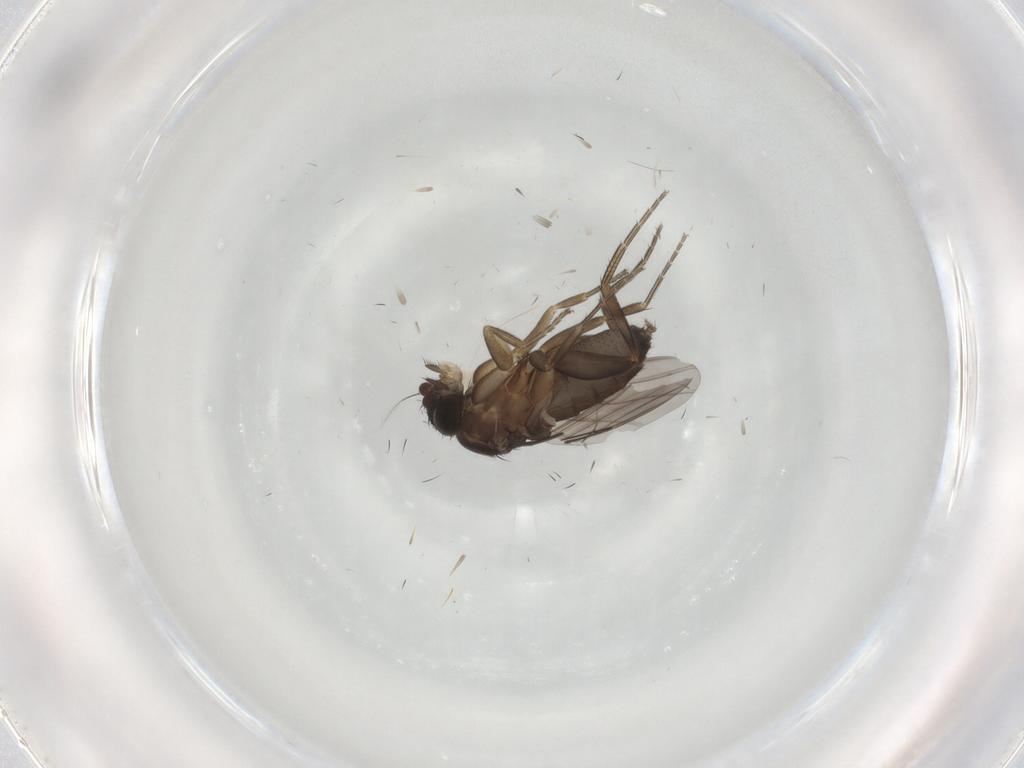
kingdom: Animalia
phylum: Arthropoda
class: Insecta
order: Diptera
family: Phoridae
